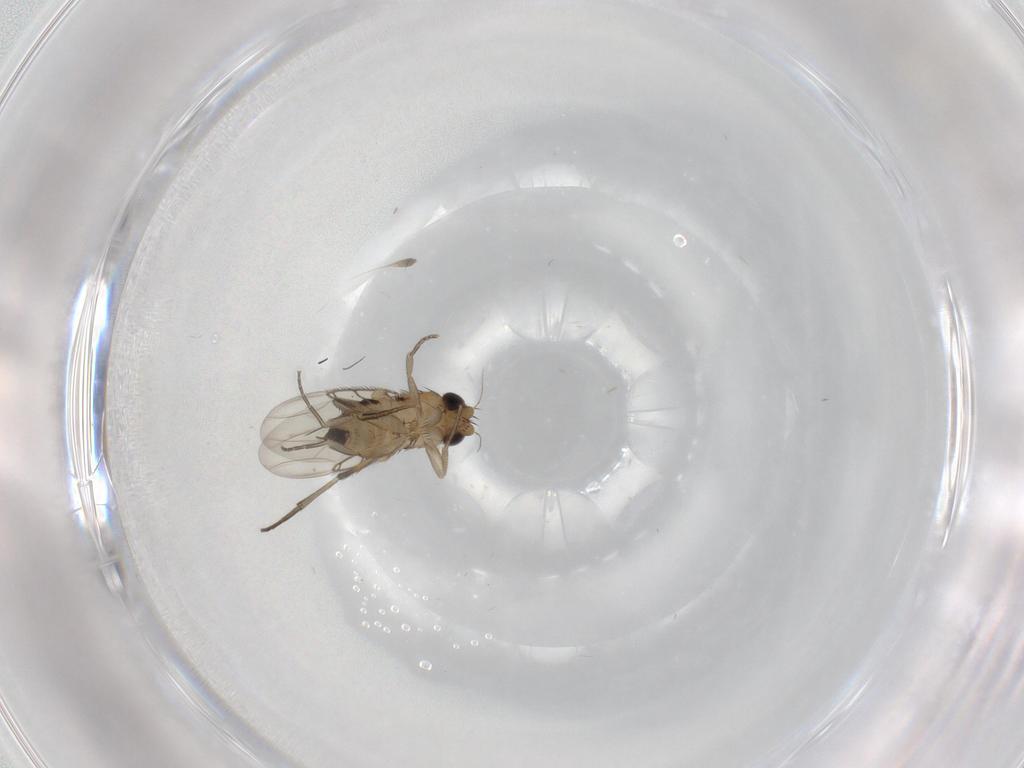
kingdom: Animalia
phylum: Arthropoda
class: Insecta
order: Diptera
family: Phoridae
